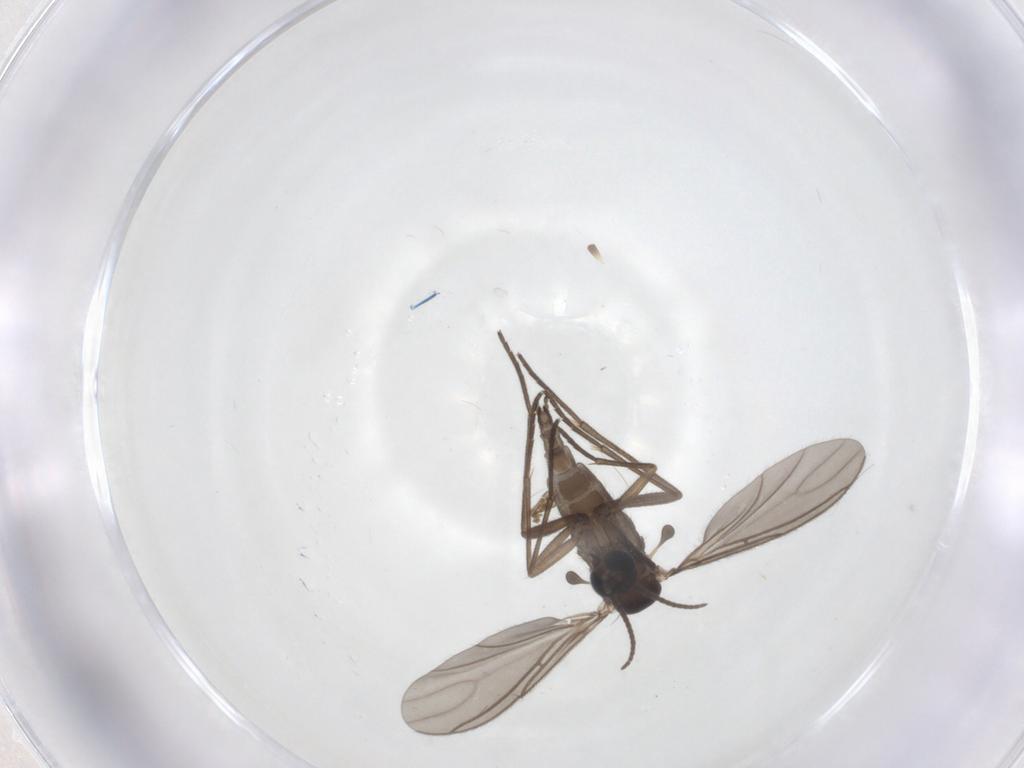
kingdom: Animalia
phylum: Arthropoda
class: Insecta
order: Diptera
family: Sciaridae
